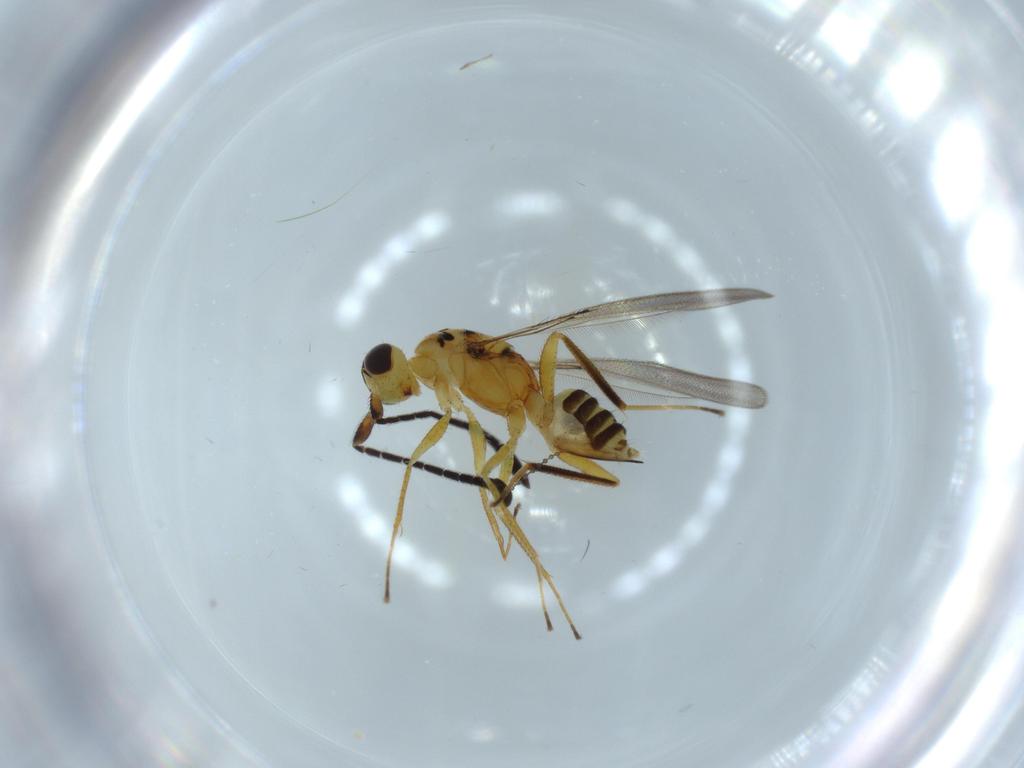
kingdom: Animalia
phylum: Arthropoda
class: Insecta
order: Hymenoptera
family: Mymaridae
